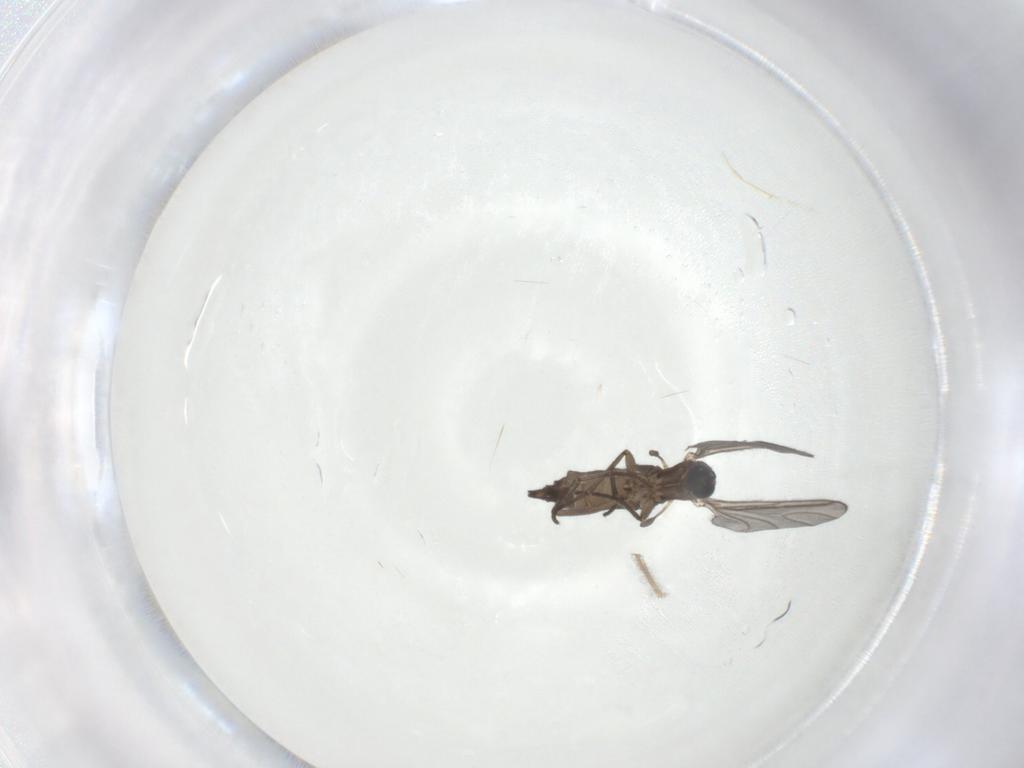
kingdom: Animalia
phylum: Arthropoda
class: Insecta
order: Diptera
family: Sciaridae
